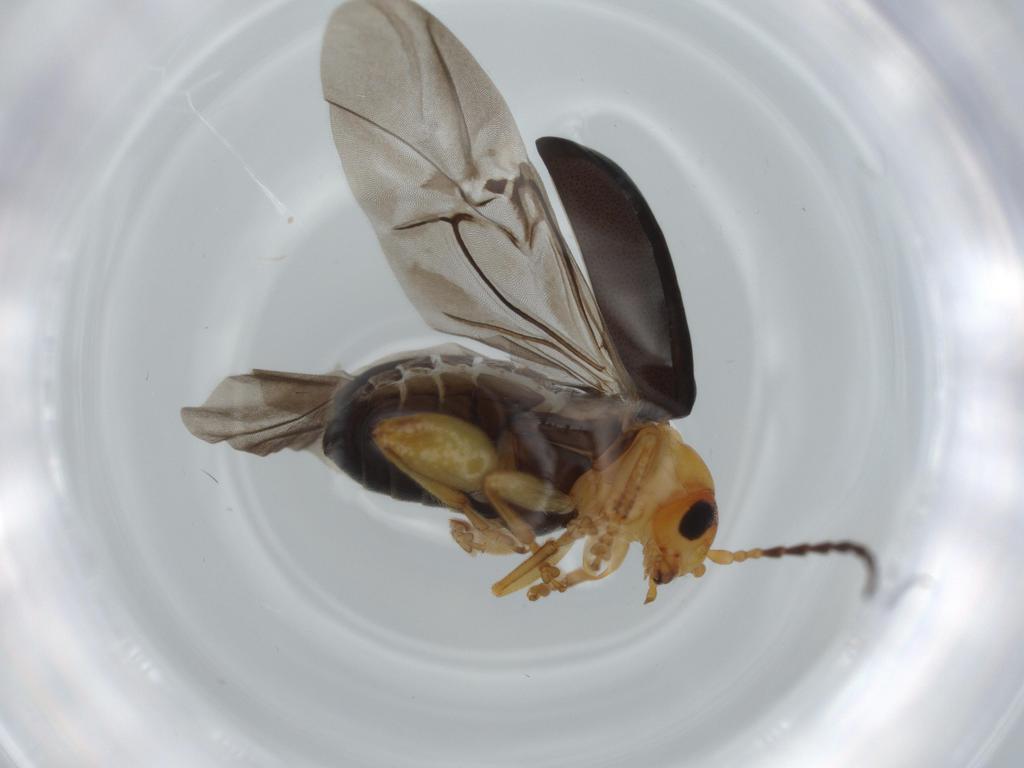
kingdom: Animalia
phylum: Arthropoda
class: Insecta
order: Coleoptera
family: Chrysomelidae
